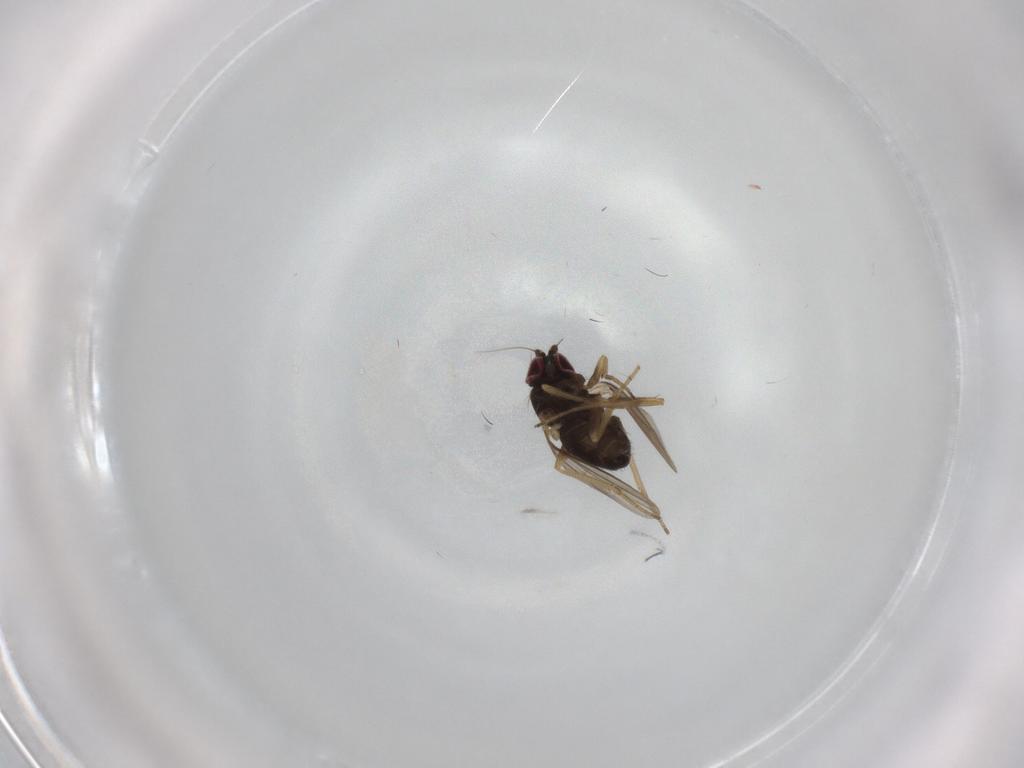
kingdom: Animalia
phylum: Arthropoda
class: Insecta
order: Diptera
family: Dolichopodidae
